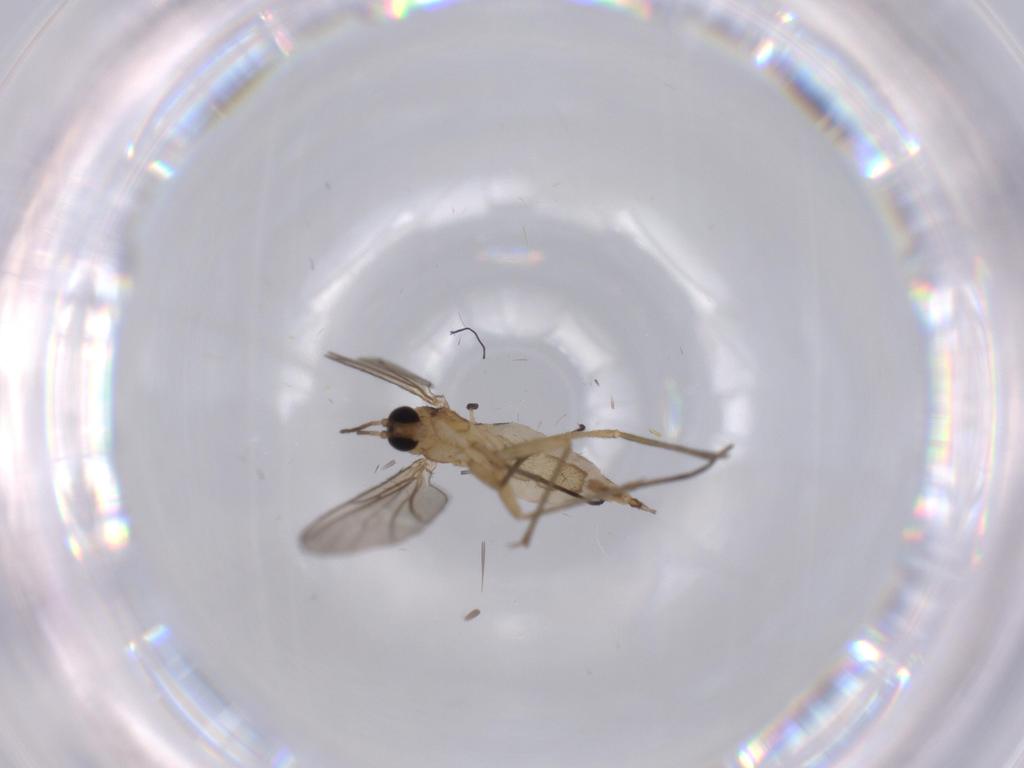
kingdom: Animalia
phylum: Arthropoda
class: Insecta
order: Diptera
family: Cecidomyiidae
